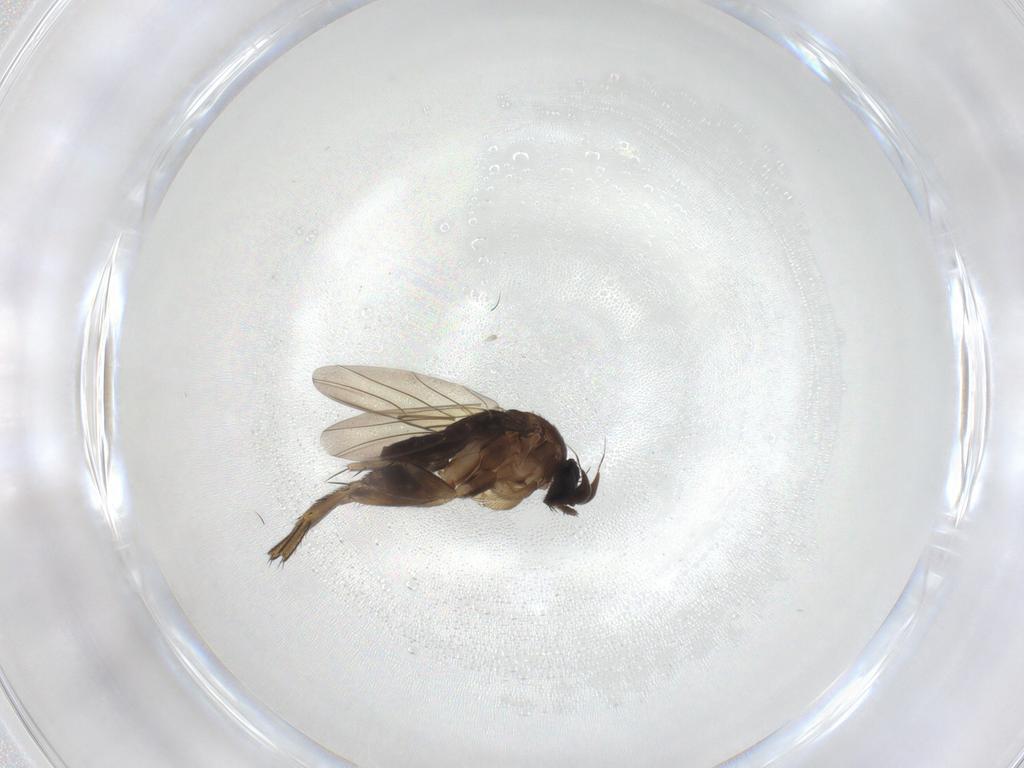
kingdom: Animalia
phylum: Arthropoda
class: Insecta
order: Diptera
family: Phoridae
